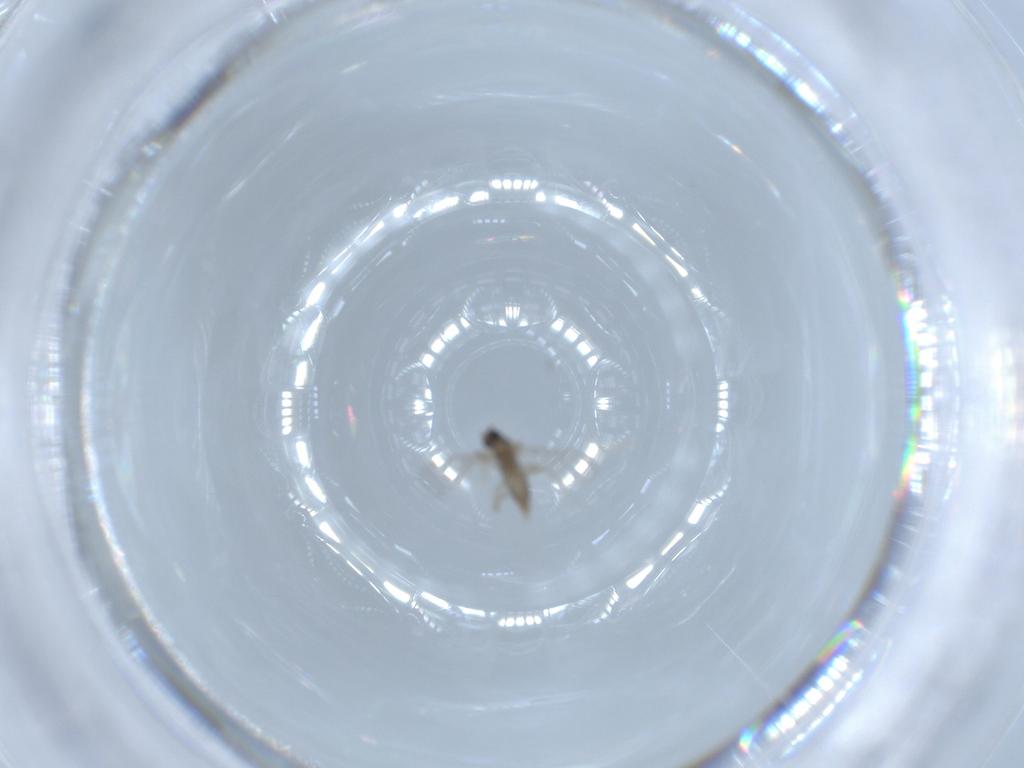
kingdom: Animalia
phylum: Arthropoda
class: Insecta
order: Diptera
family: Cecidomyiidae
